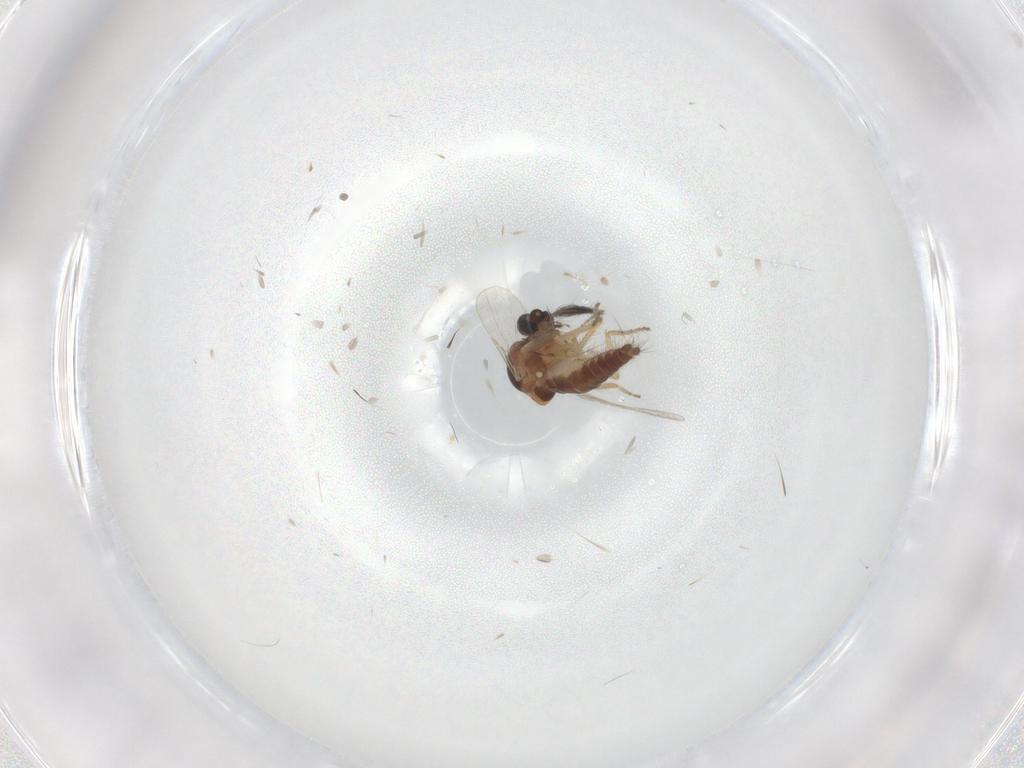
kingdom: Animalia
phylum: Arthropoda
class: Insecta
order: Diptera
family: Ceratopogonidae
